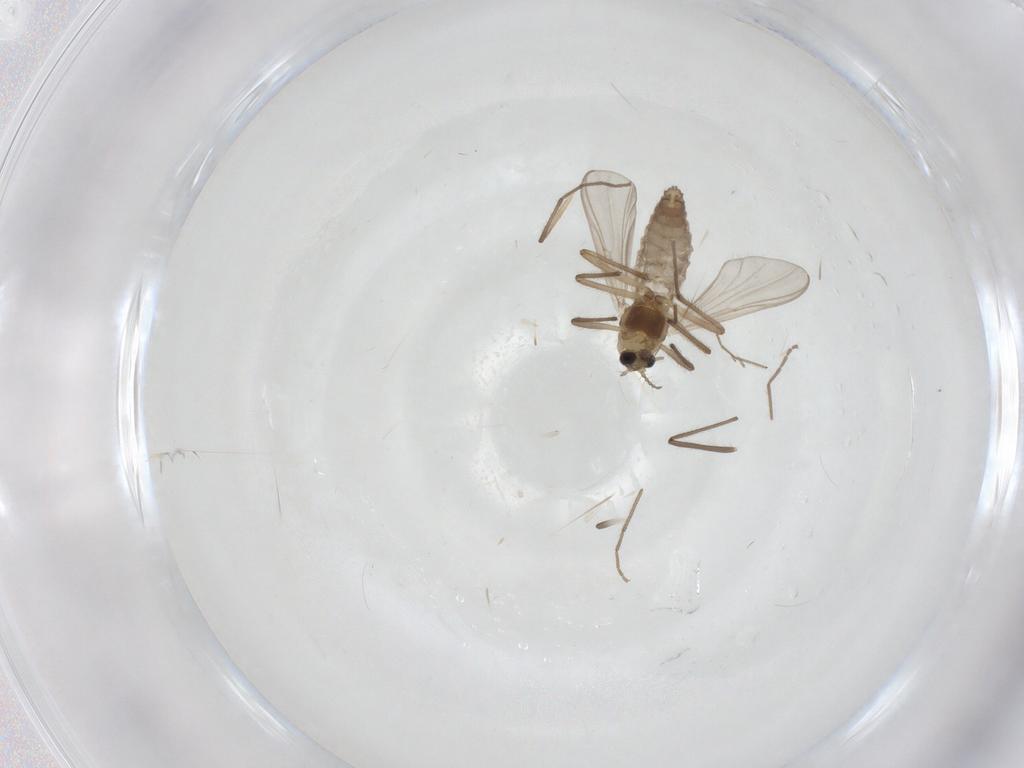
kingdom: Animalia
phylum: Arthropoda
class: Insecta
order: Diptera
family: Chironomidae
